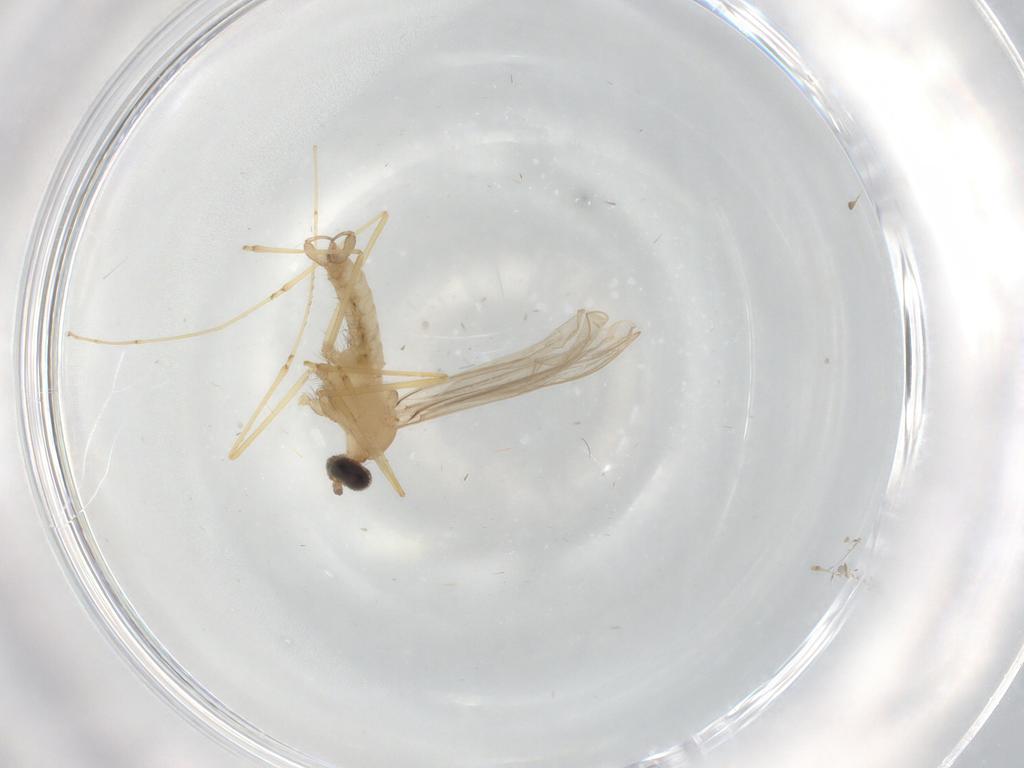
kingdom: Animalia
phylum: Arthropoda
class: Insecta
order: Diptera
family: Cecidomyiidae
